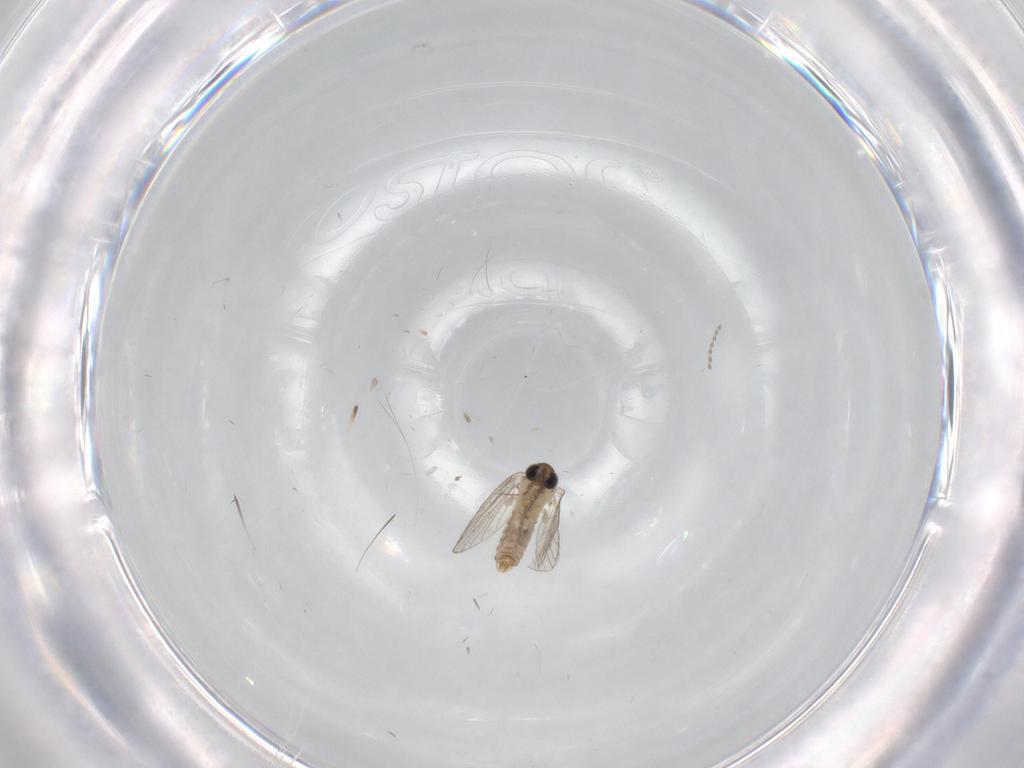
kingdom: Animalia
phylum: Arthropoda
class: Insecta
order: Diptera
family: Psychodidae
